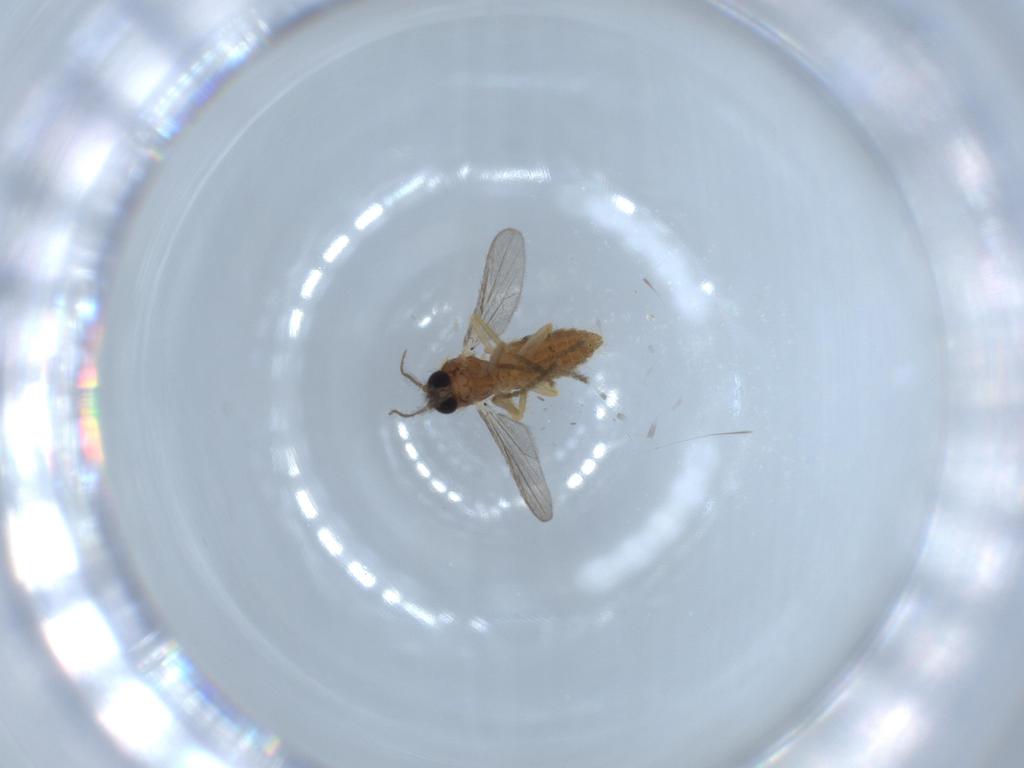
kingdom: Animalia
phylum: Arthropoda
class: Insecta
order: Diptera
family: Ceratopogonidae
